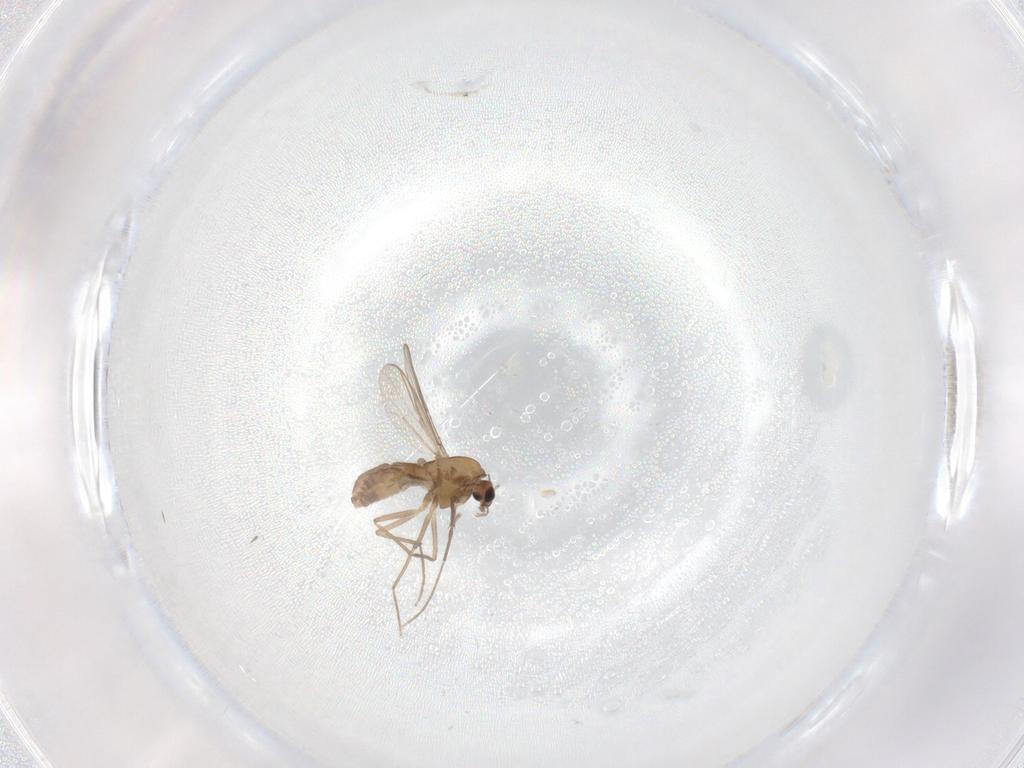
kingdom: Animalia
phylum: Arthropoda
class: Insecta
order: Diptera
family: Chironomidae
